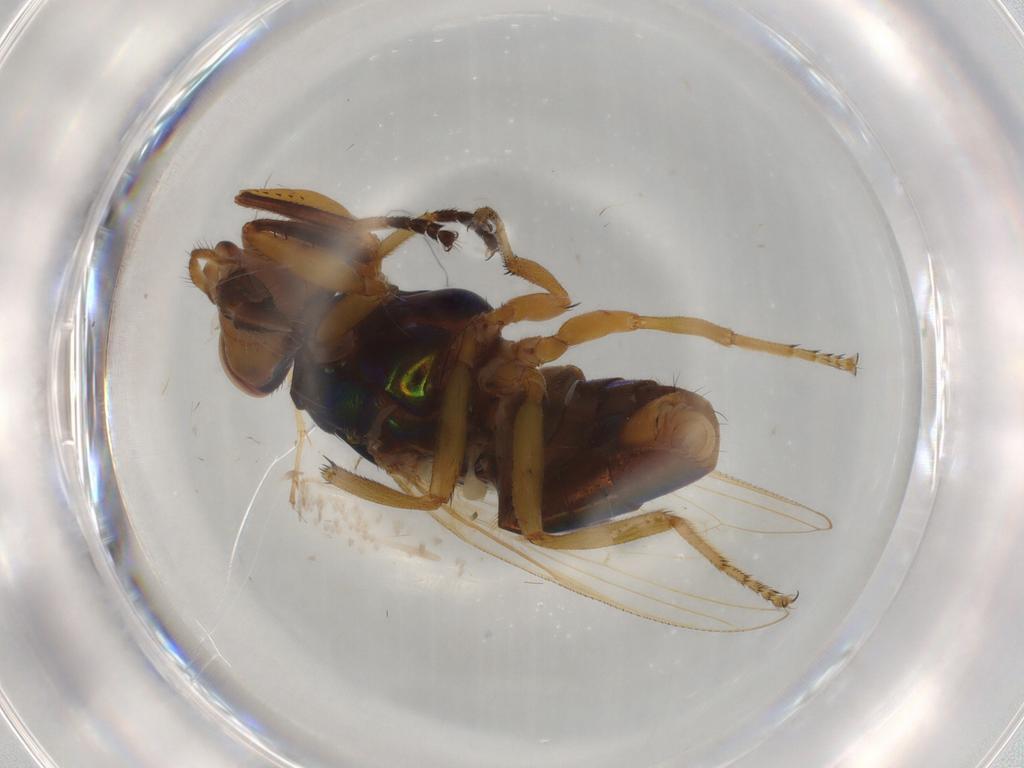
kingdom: Animalia
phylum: Arthropoda
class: Insecta
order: Diptera
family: Ulidiidae
